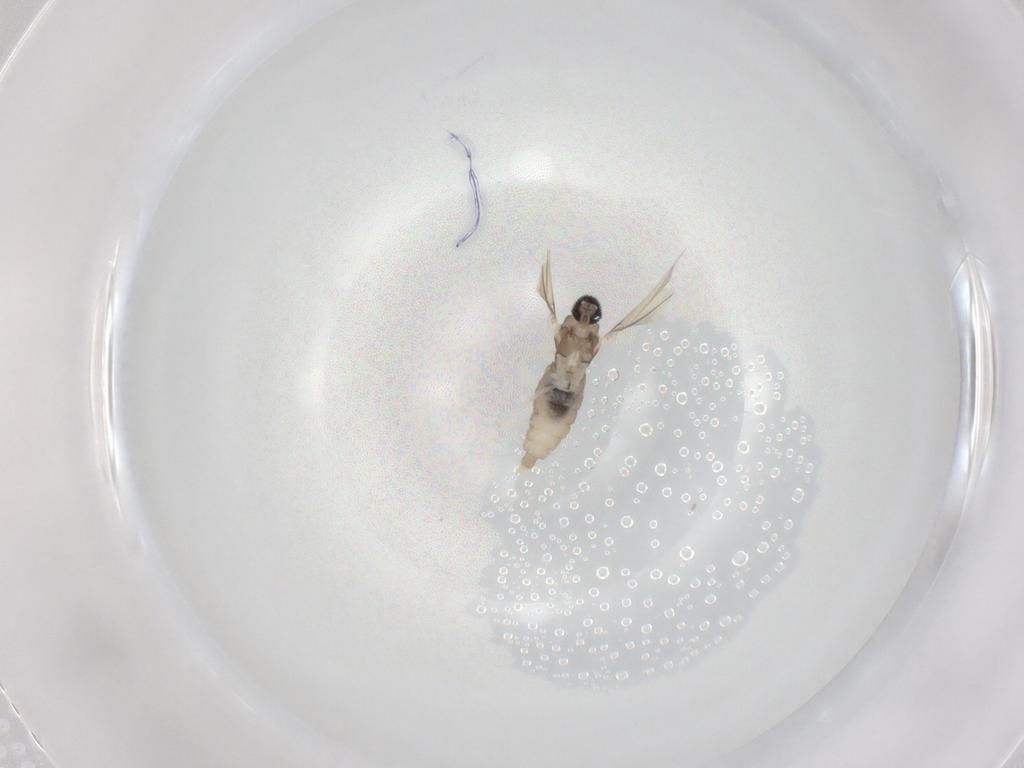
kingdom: Animalia
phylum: Arthropoda
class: Insecta
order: Diptera
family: Cecidomyiidae
